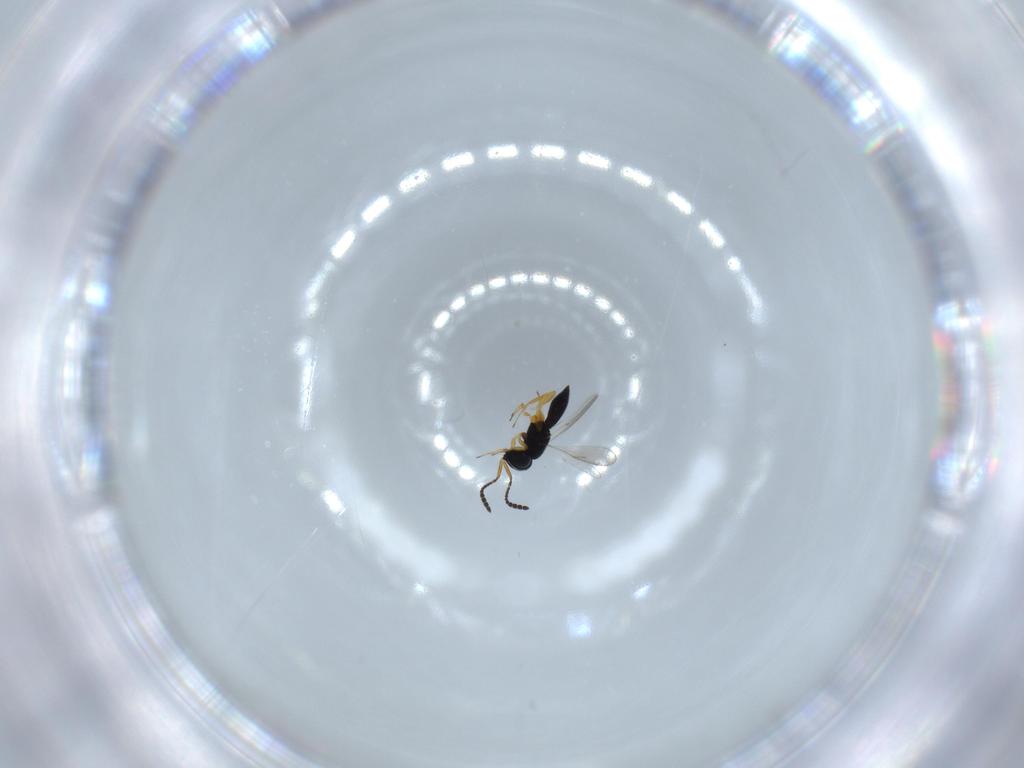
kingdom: Animalia
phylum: Arthropoda
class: Insecta
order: Hymenoptera
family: Scelionidae
